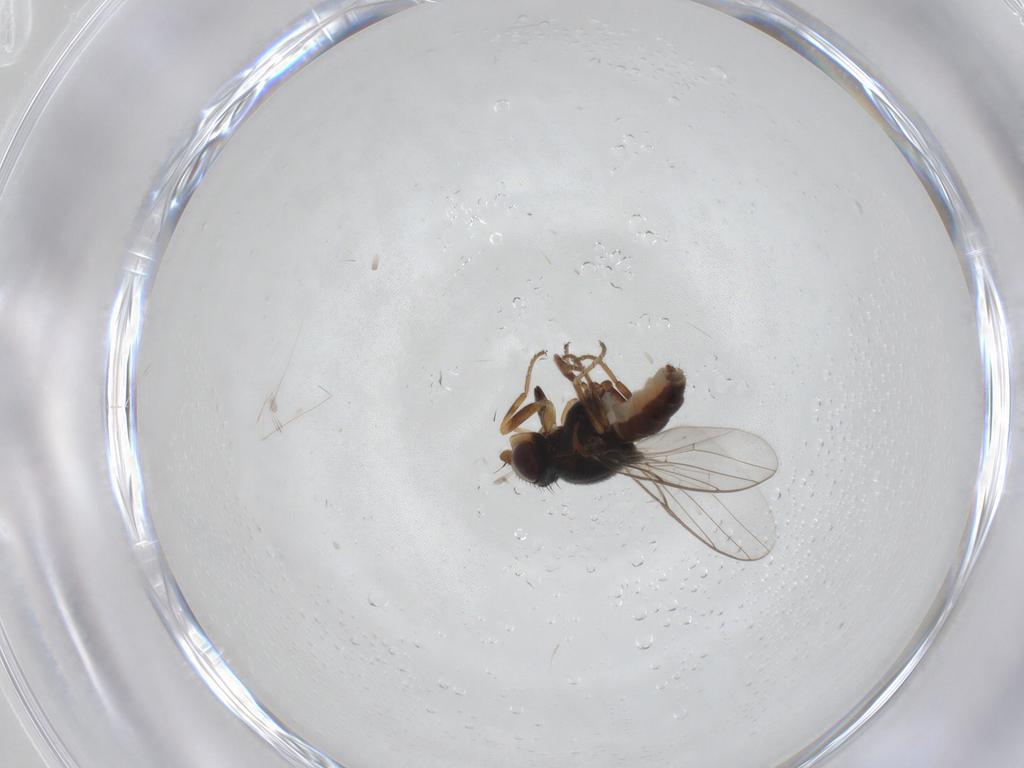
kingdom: Animalia
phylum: Arthropoda
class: Insecta
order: Diptera
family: Chloropidae
